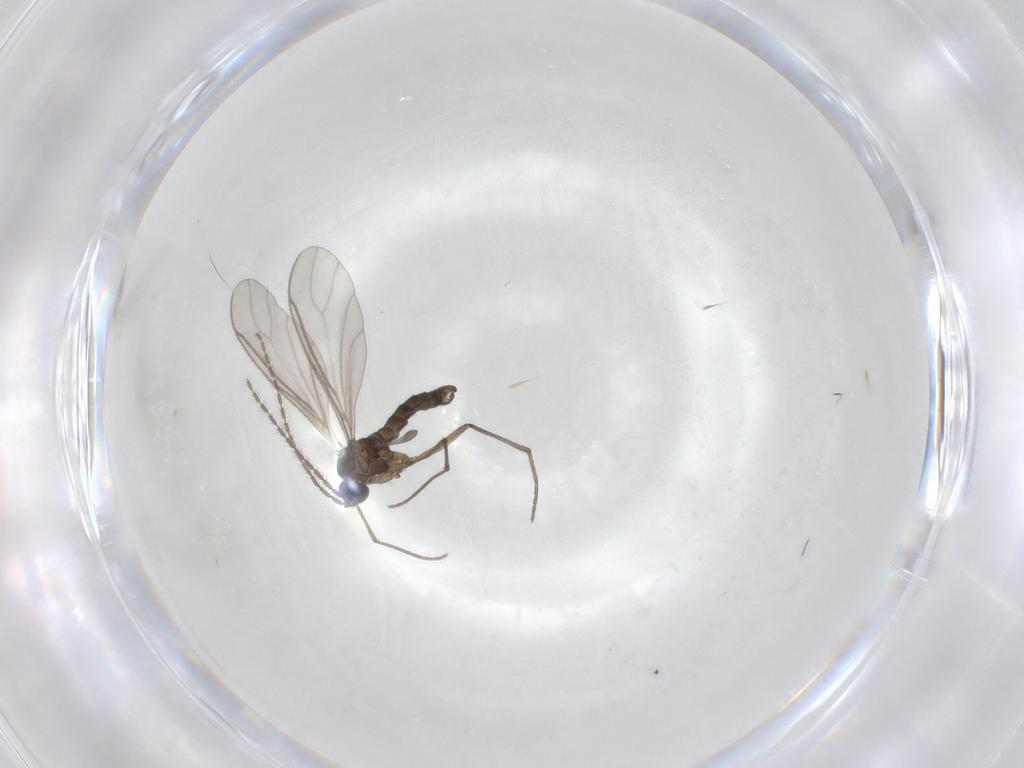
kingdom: Animalia
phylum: Arthropoda
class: Insecta
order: Diptera
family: Sciaridae
